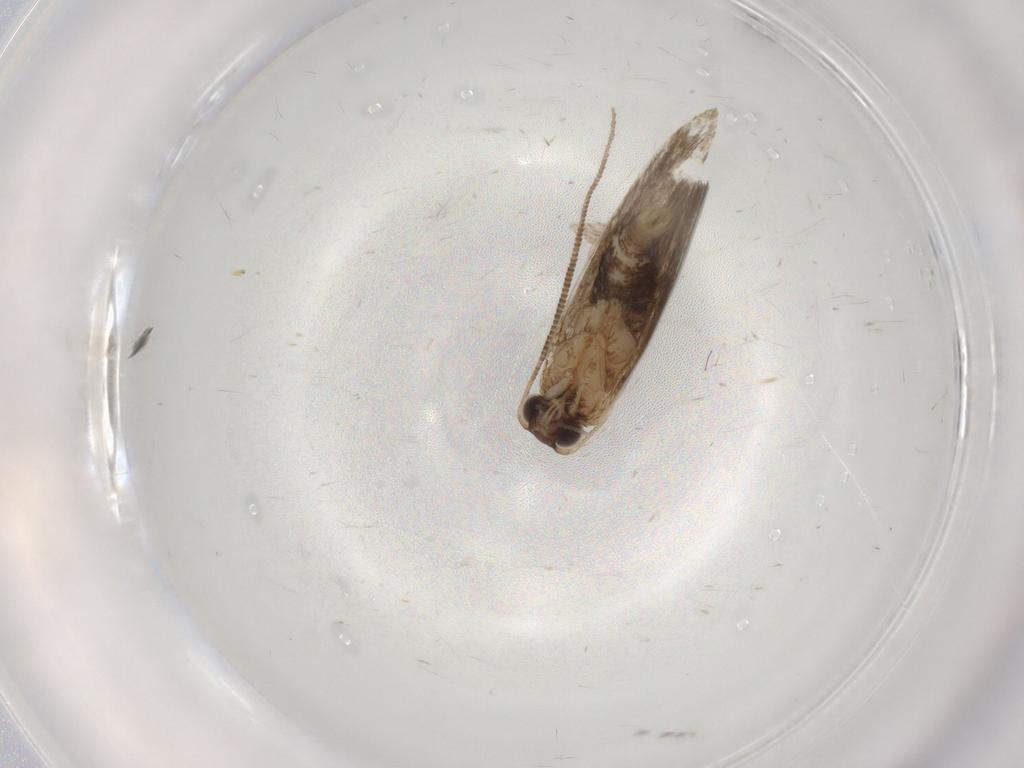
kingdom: Animalia
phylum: Arthropoda
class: Insecta
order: Lepidoptera
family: Tineidae
